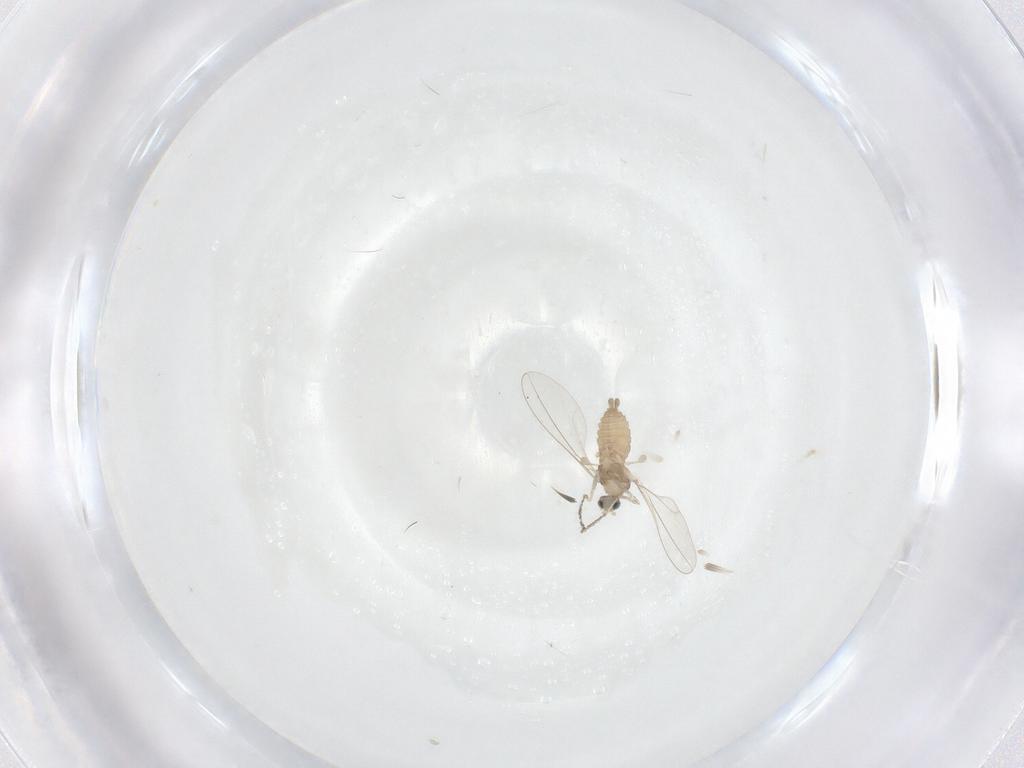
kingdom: Animalia
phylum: Arthropoda
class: Insecta
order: Diptera
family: Cecidomyiidae
